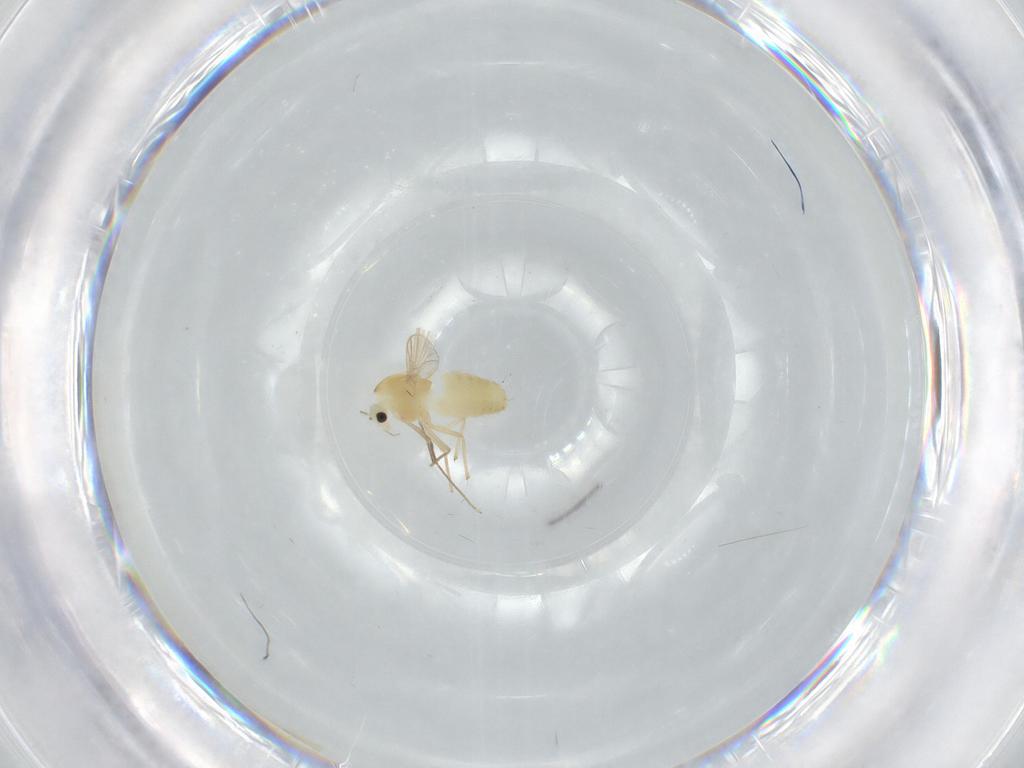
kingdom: Animalia
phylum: Arthropoda
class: Insecta
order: Diptera
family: Chironomidae
